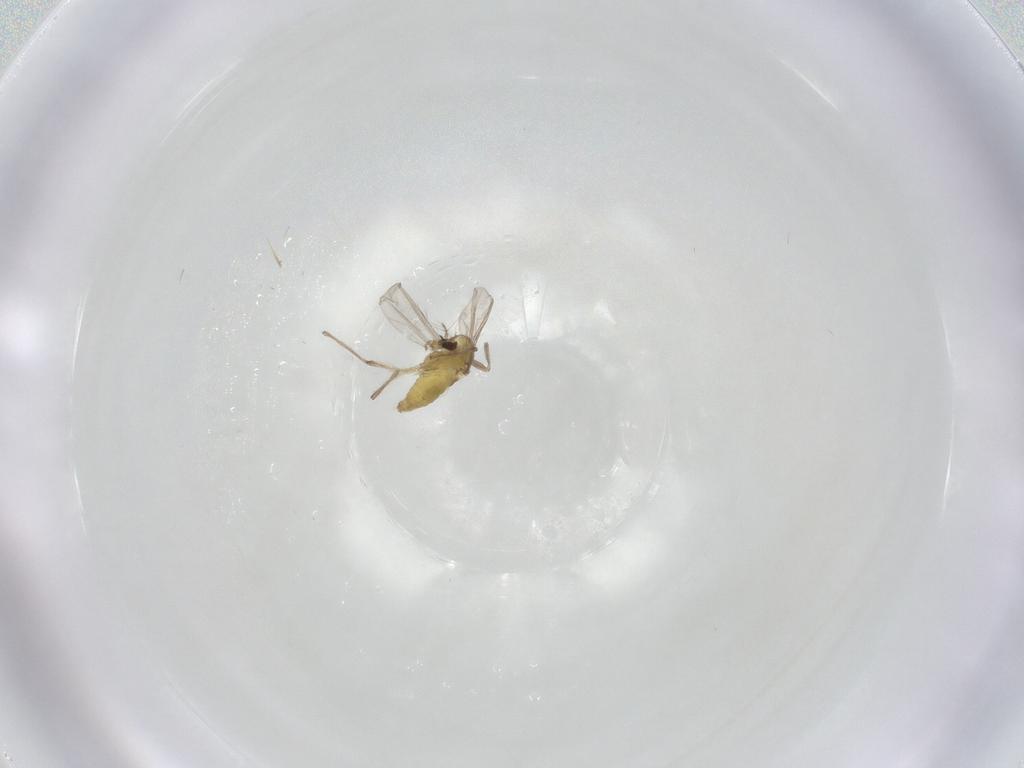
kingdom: Animalia
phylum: Arthropoda
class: Insecta
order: Diptera
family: Chironomidae
